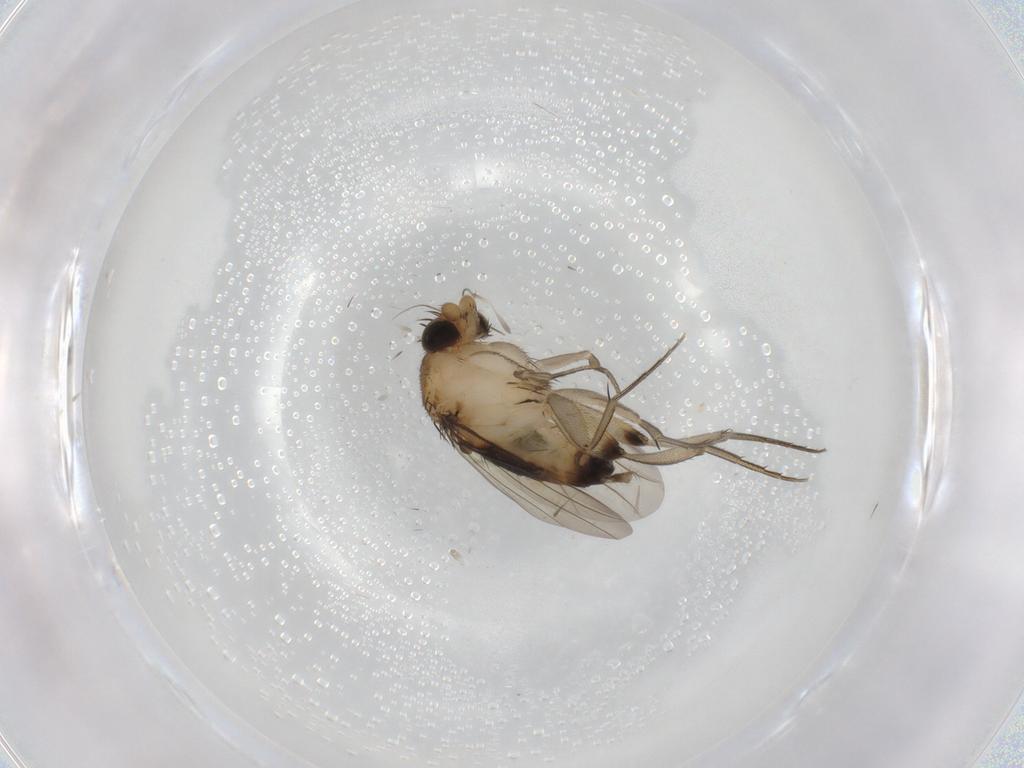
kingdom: Animalia
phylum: Arthropoda
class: Insecta
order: Diptera
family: Phoridae
